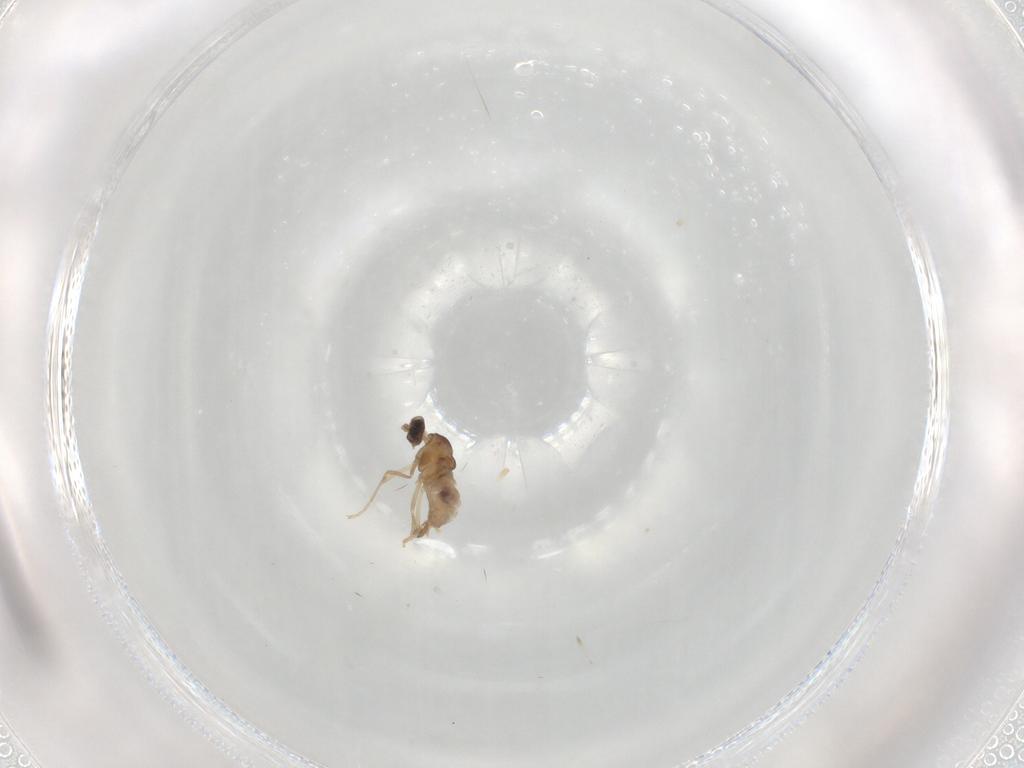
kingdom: Animalia
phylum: Arthropoda
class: Insecta
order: Diptera
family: Cecidomyiidae
